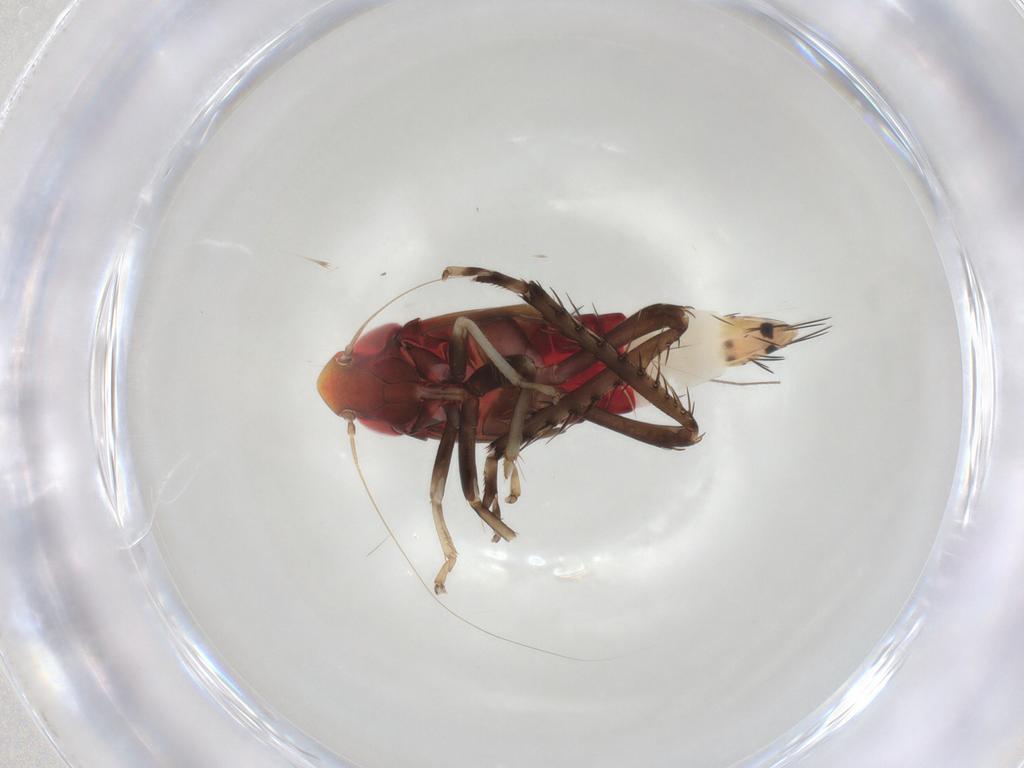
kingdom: Animalia
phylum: Arthropoda
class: Insecta
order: Hemiptera
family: Cicadellidae
